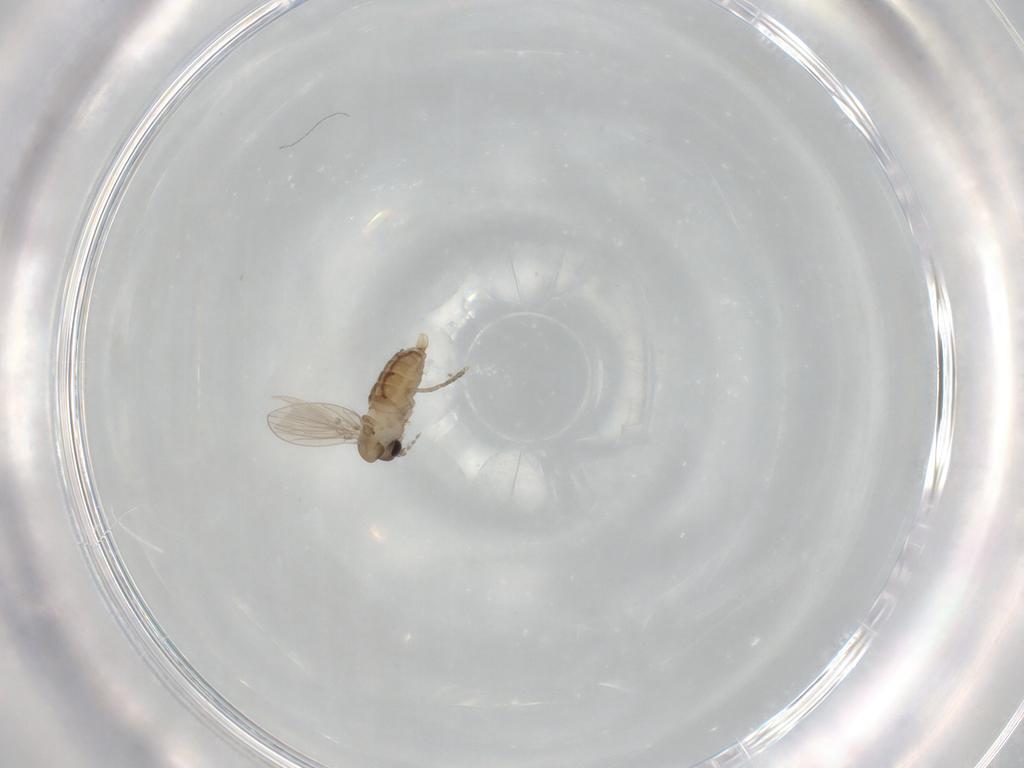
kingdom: Animalia
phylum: Arthropoda
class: Insecta
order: Diptera
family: Psychodidae
